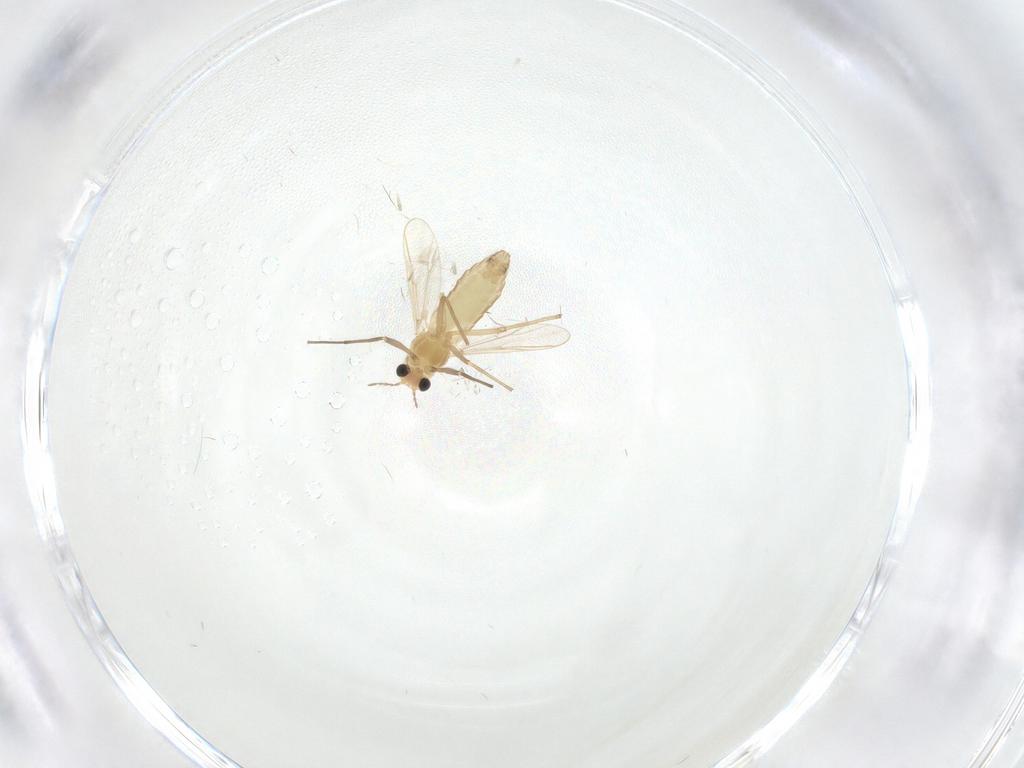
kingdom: Animalia
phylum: Arthropoda
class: Insecta
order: Diptera
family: Chironomidae
